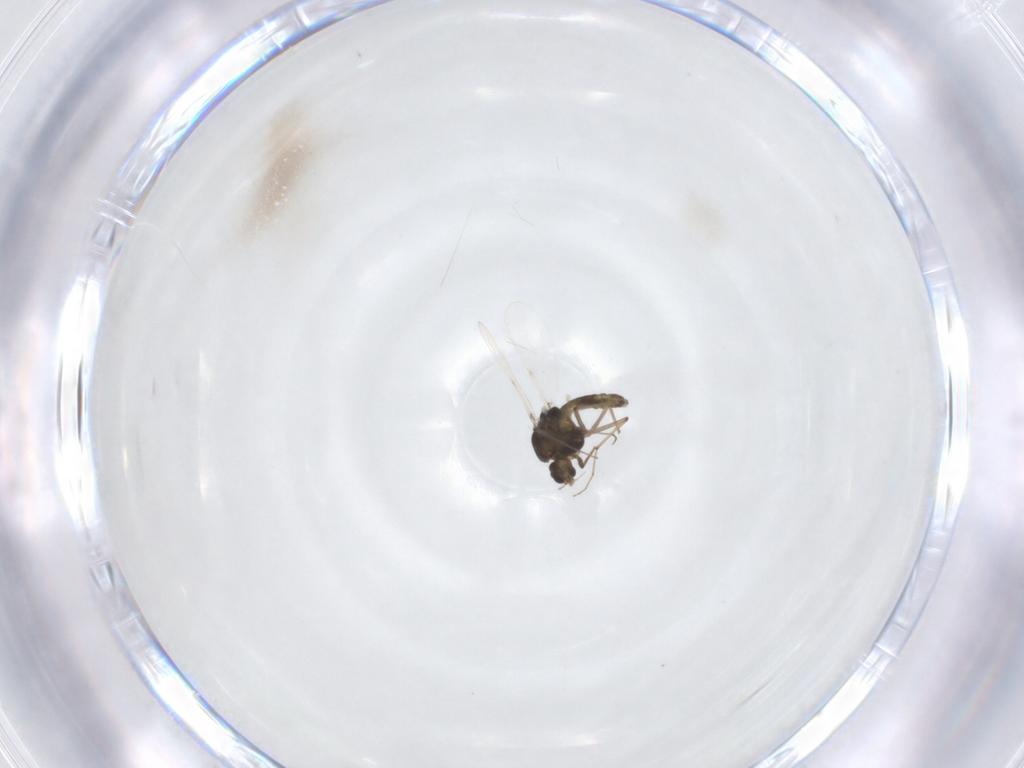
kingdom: Animalia
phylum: Arthropoda
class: Insecta
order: Diptera
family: Chironomidae
